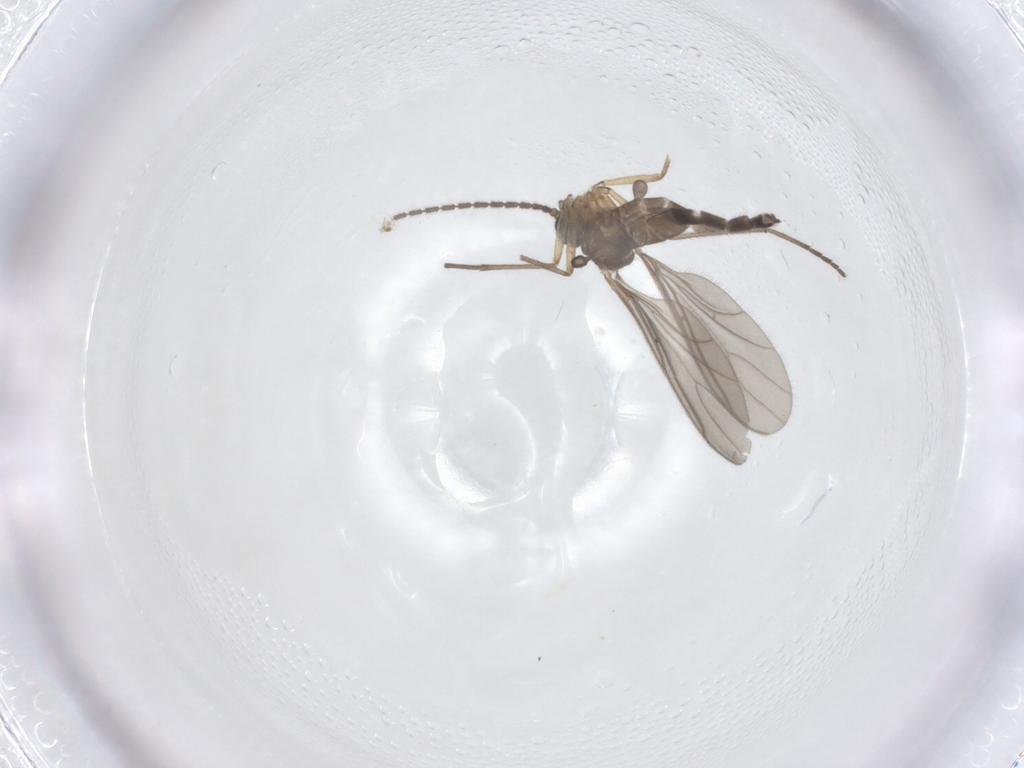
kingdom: Animalia
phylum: Arthropoda
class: Insecta
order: Diptera
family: Sciaridae
